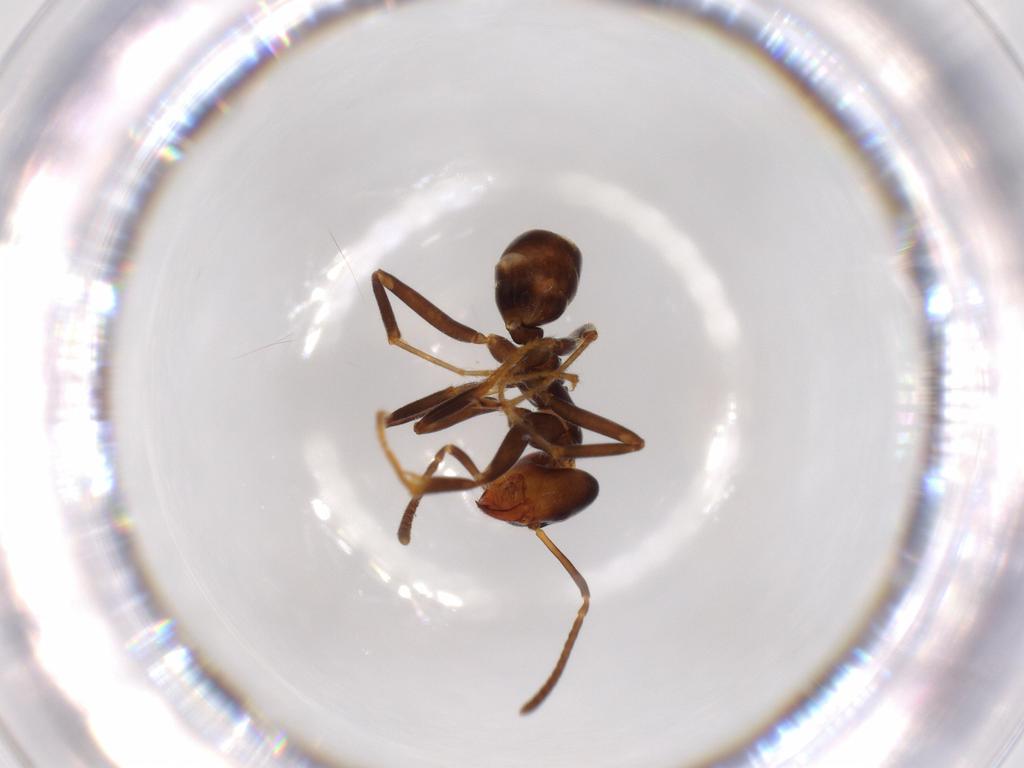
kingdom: Animalia
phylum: Arthropoda
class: Insecta
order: Hymenoptera
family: Formicidae
